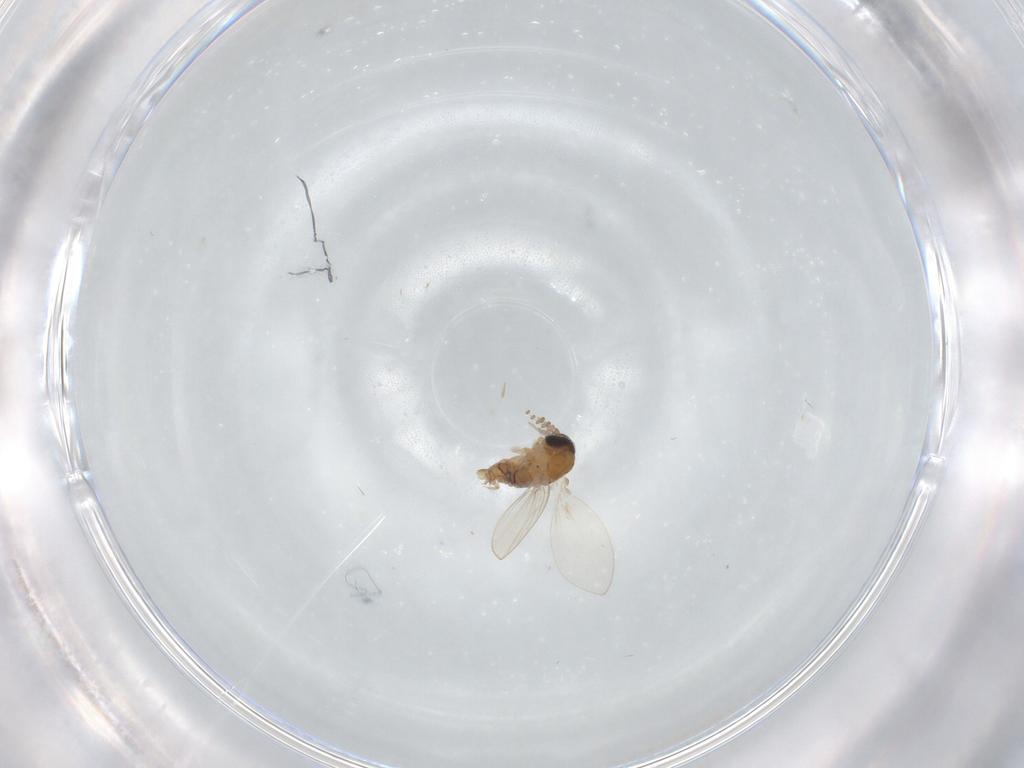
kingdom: Animalia
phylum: Arthropoda
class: Insecta
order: Diptera
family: Psychodidae
